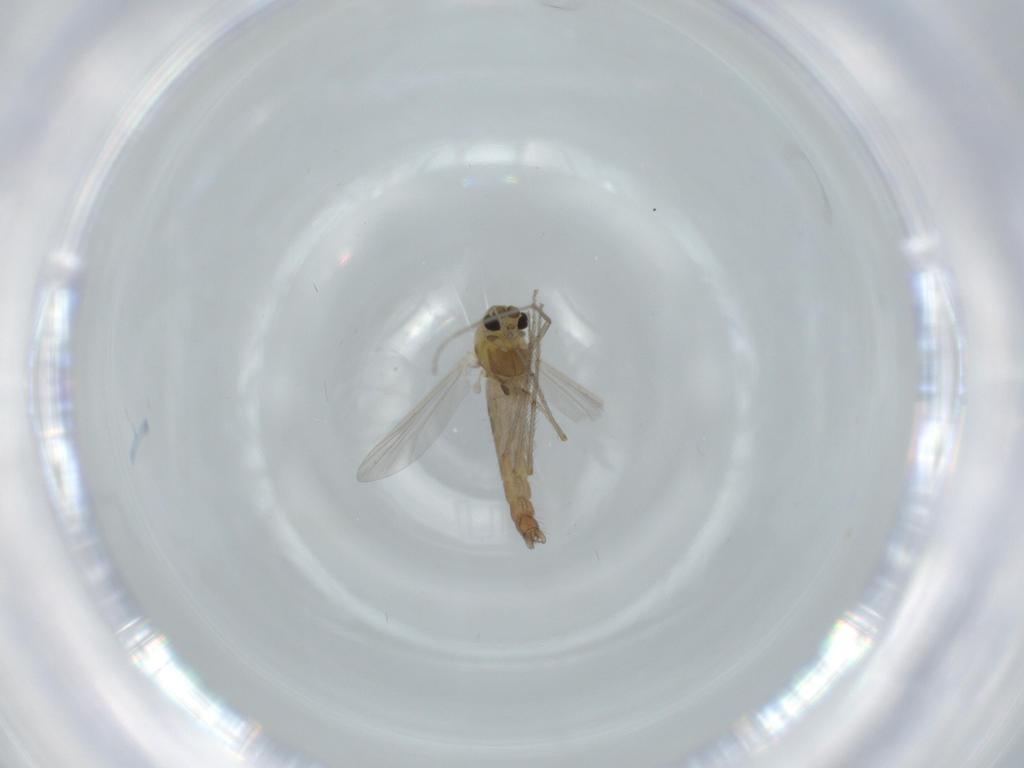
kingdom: Animalia
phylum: Arthropoda
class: Insecta
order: Diptera
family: Chironomidae
